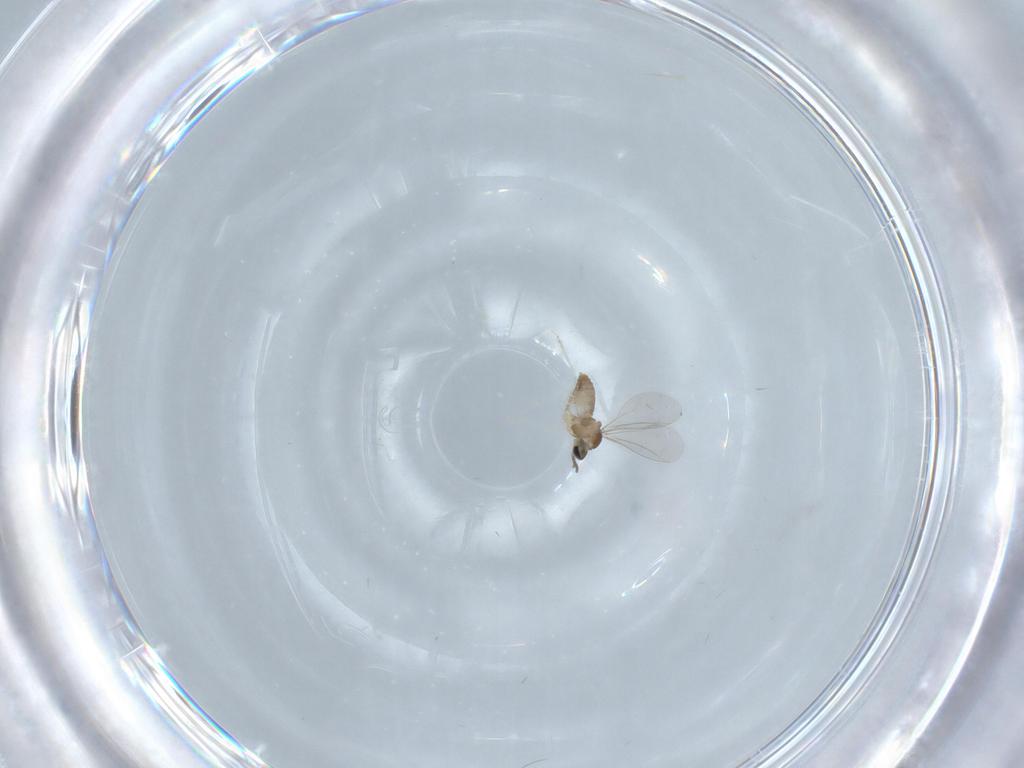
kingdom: Animalia
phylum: Arthropoda
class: Insecta
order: Diptera
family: Cecidomyiidae
